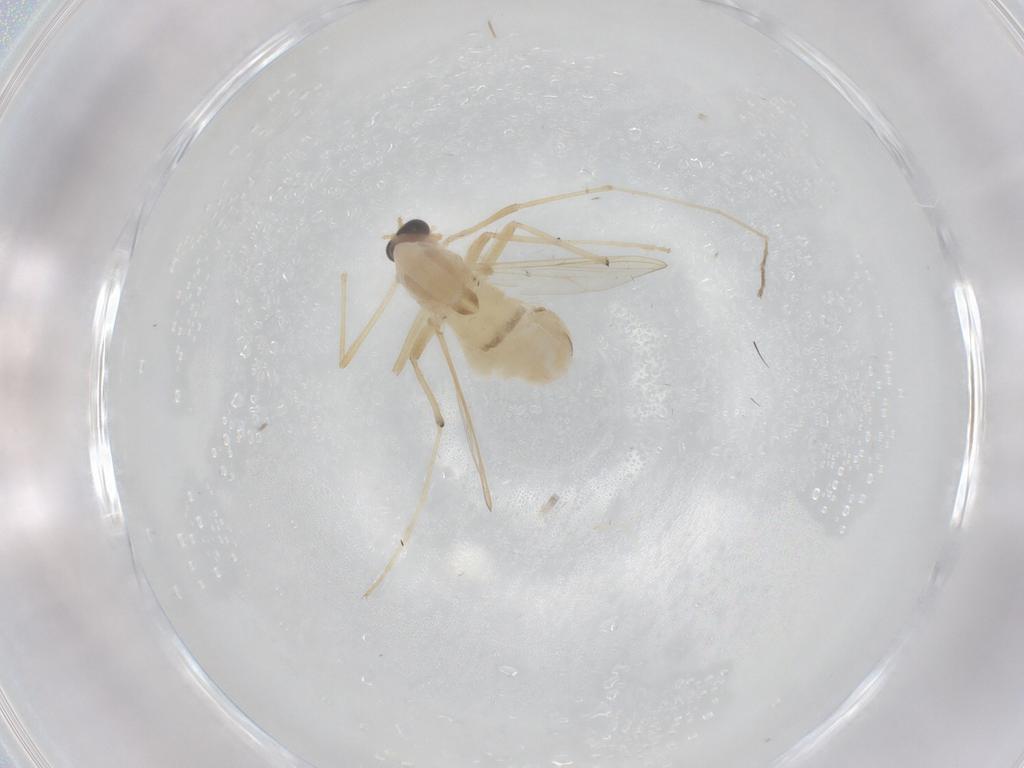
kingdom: Animalia
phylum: Arthropoda
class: Insecta
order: Diptera
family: Chironomidae
